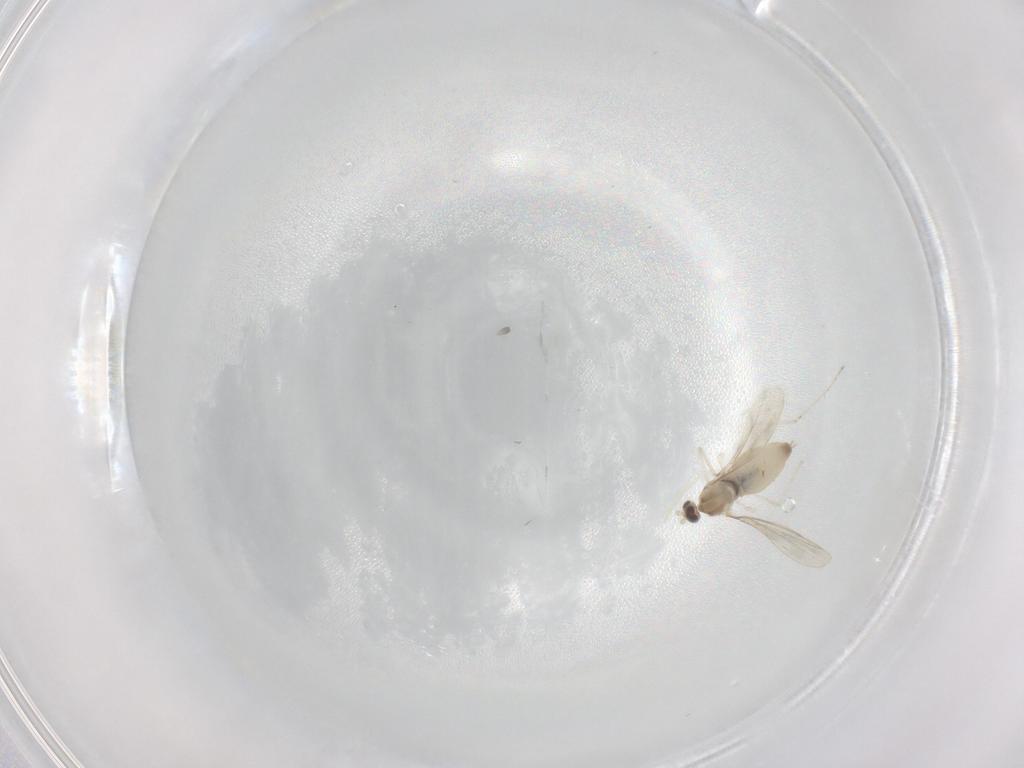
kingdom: Animalia
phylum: Arthropoda
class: Insecta
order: Diptera
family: Cecidomyiidae
